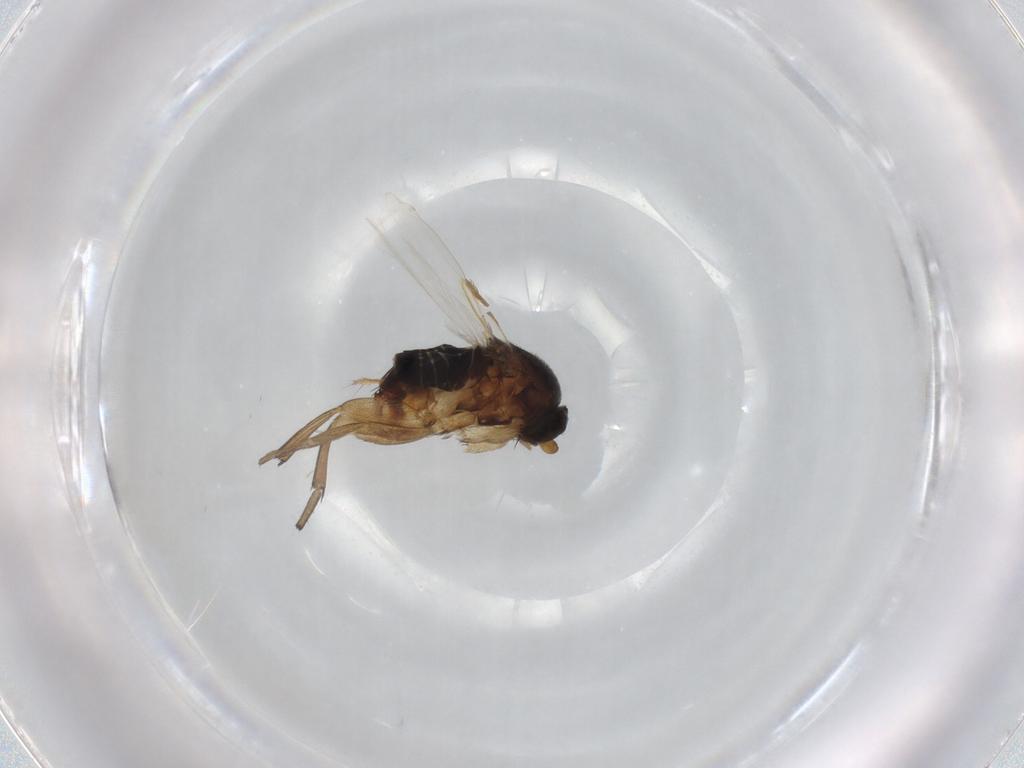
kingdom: Animalia
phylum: Arthropoda
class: Insecta
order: Diptera
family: Phoridae
